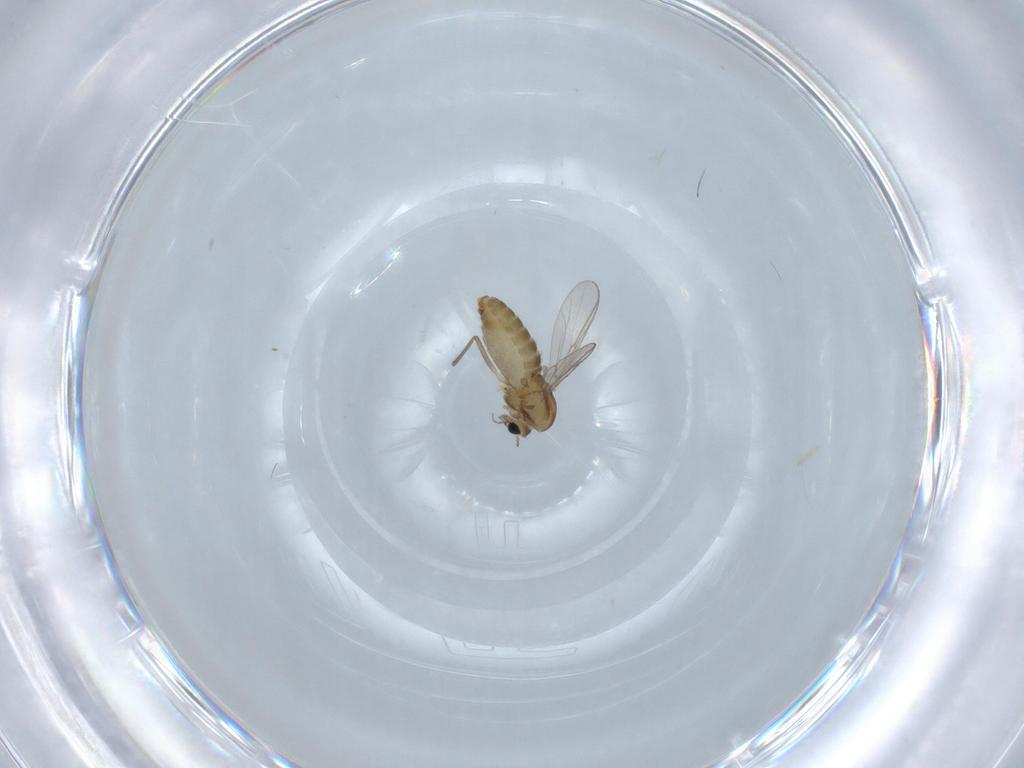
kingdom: Animalia
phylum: Arthropoda
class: Insecta
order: Diptera
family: Chironomidae
